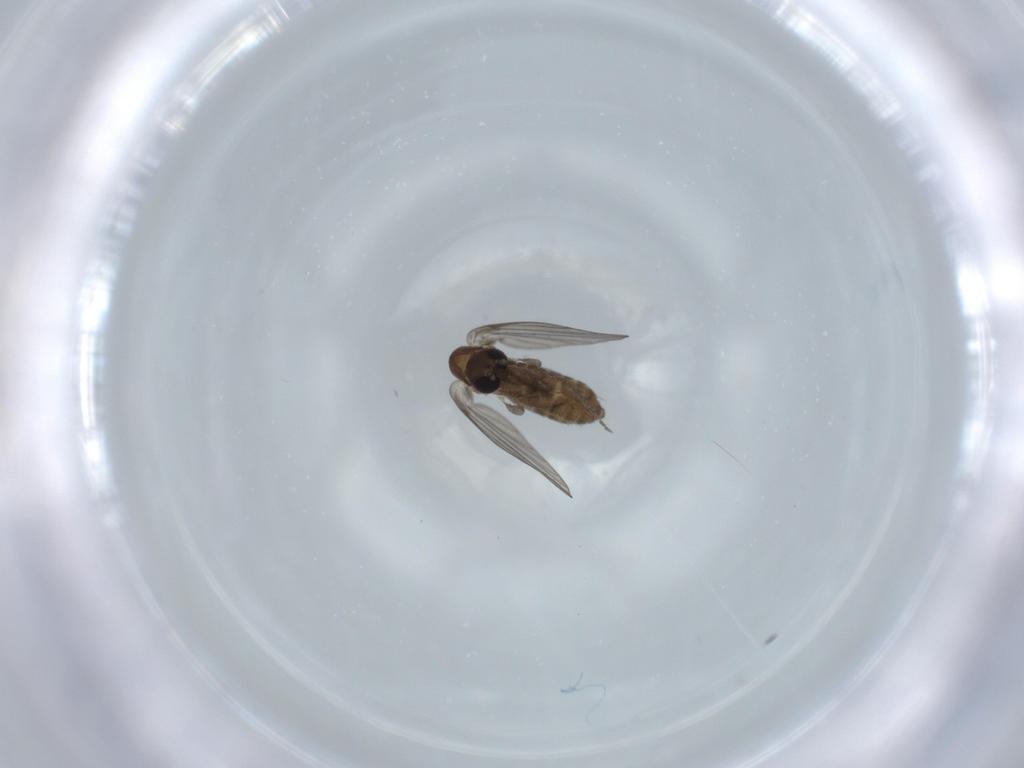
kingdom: Animalia
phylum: Arthropoda
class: Insecta
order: Diptera
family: Psychodidae
